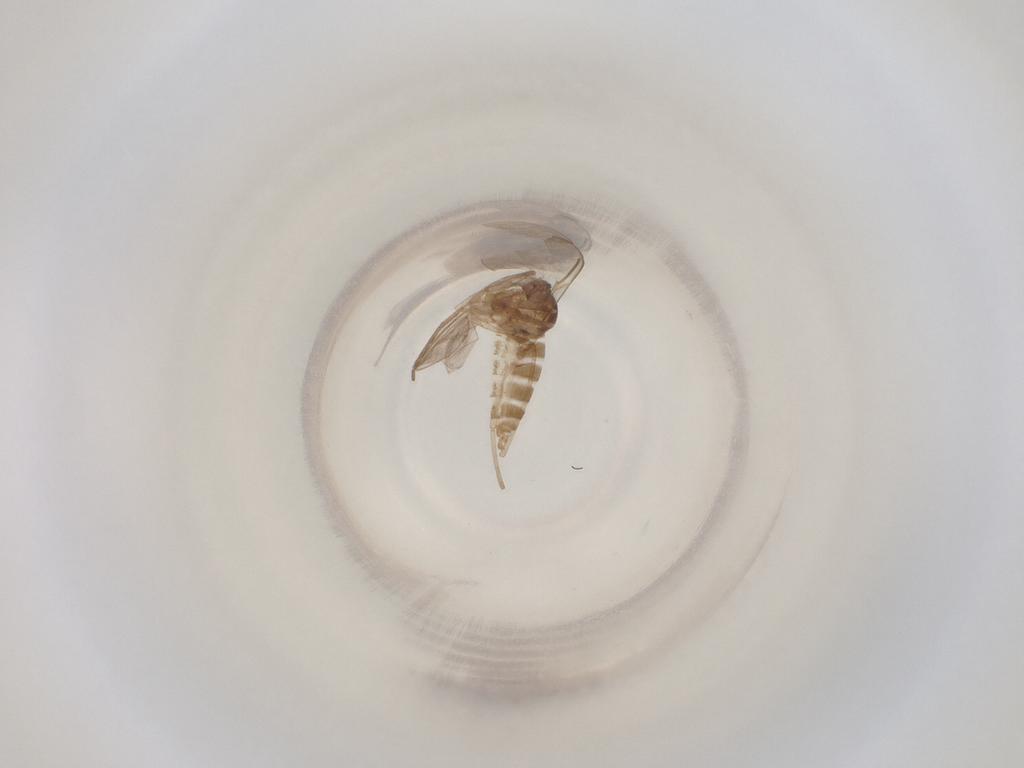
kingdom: Animalia
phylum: Arthropoda
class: Insecta
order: Diptera
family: Cecidomyiidae
